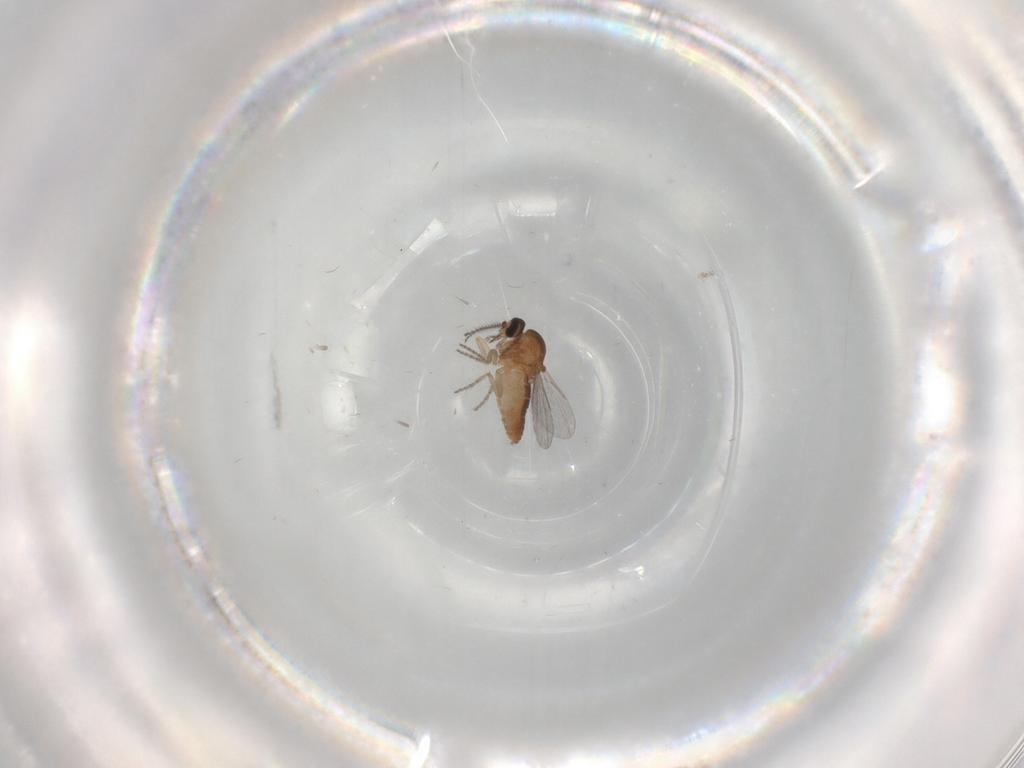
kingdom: Animalia
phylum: Arthropoda
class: Insecta
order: Diptera
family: Ceratopogonidae
